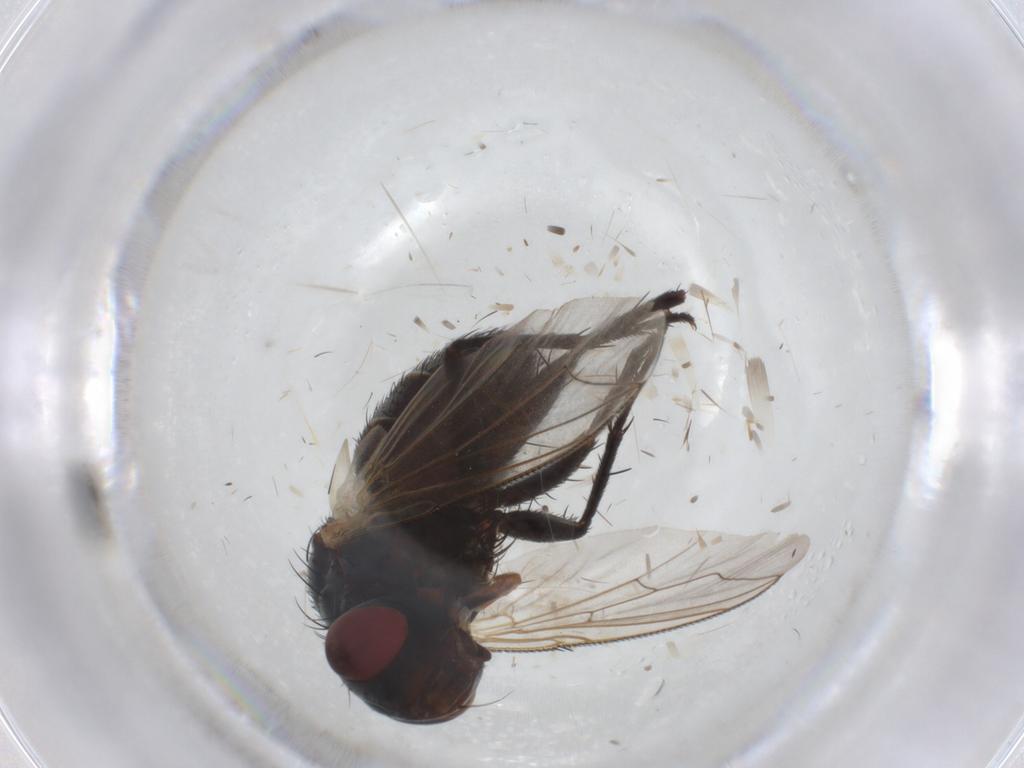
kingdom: Animalia
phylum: Arthropoda
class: Insecta
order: Diptera
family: Sarcophagidae
